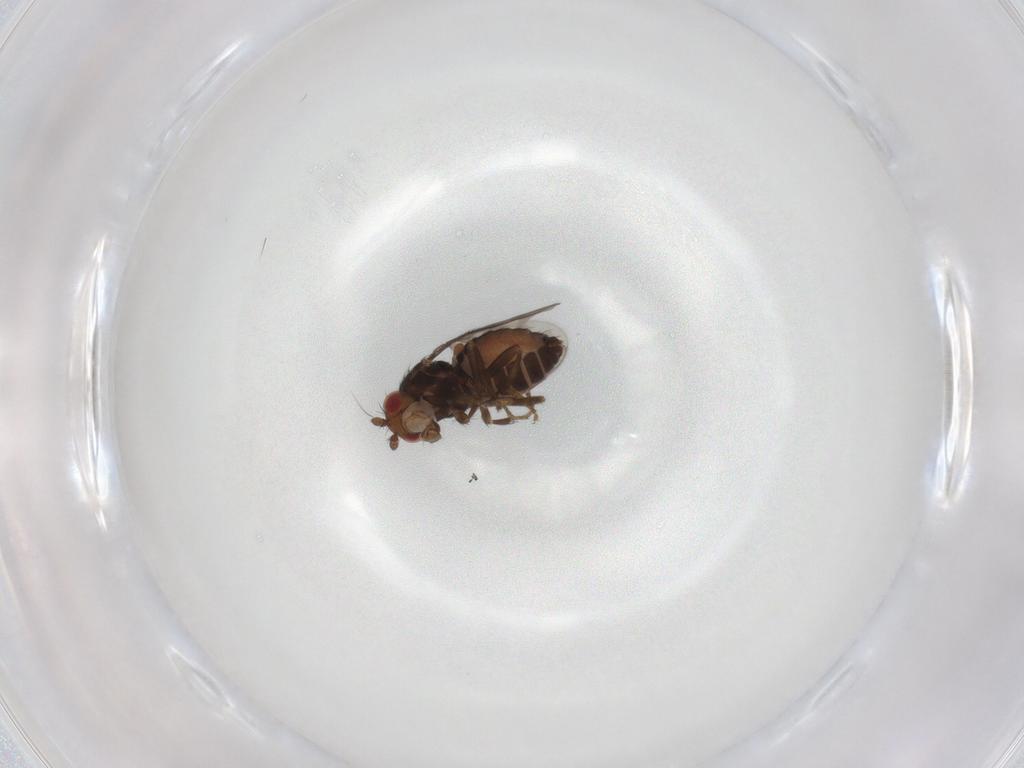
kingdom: Animalia
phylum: Arthropoda
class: Insecta
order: Diptera
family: Sphaeroceridae
